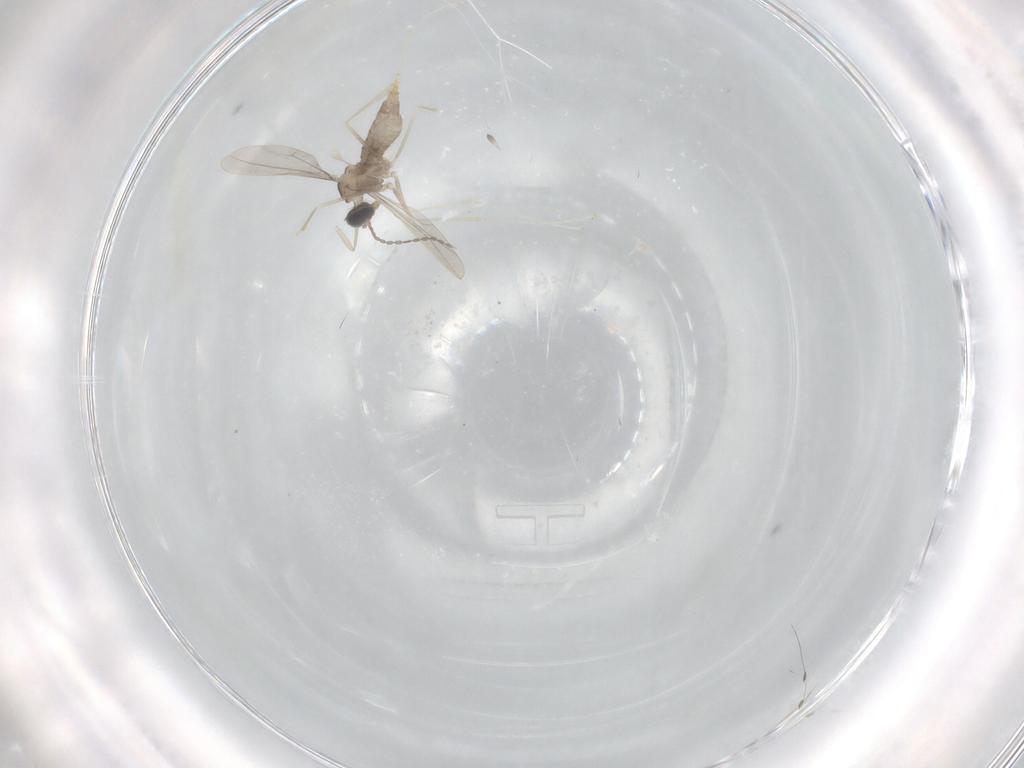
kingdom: Animalia
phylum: Arthropoda
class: Insecta
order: Diptera
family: Cecidomyiidae
